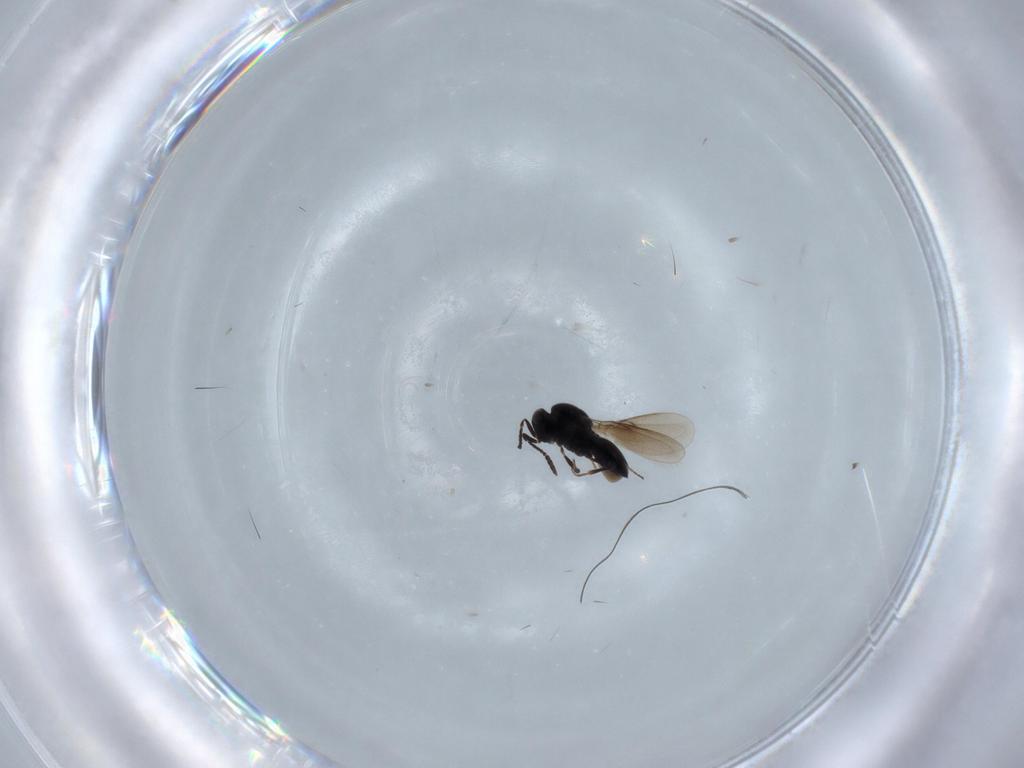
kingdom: Animalia
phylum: Arthropoda
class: Insecta
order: Hymenoptera
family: Scelionidae
